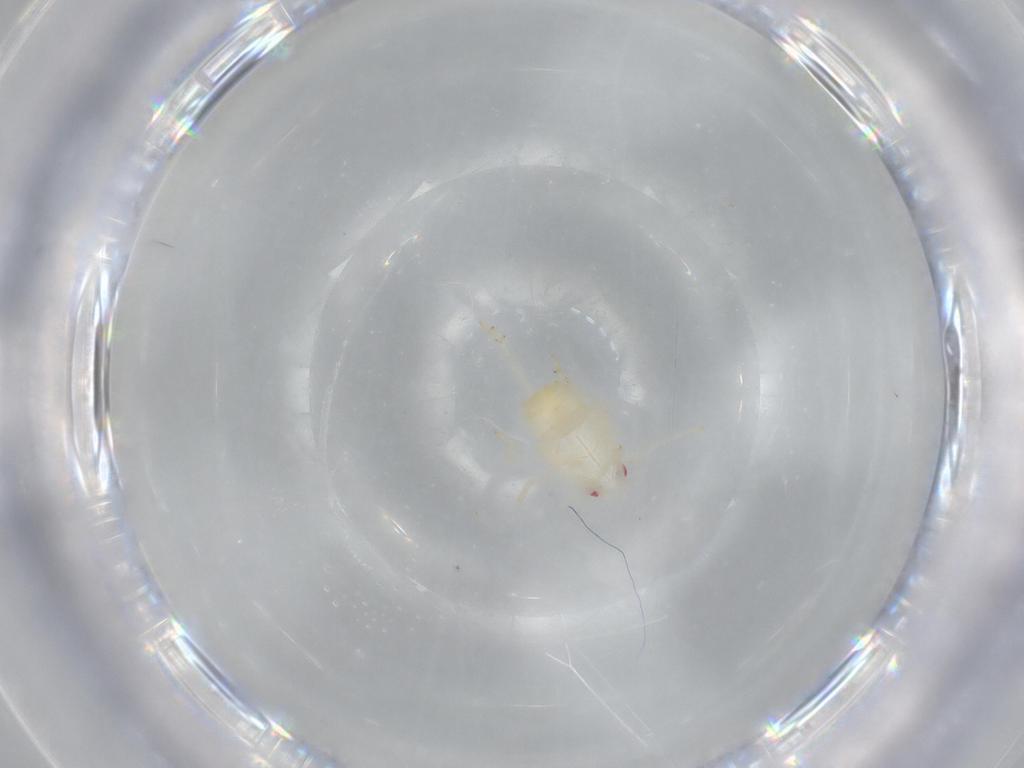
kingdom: Animalia
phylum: Arthropoda
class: Insecta
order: Hemiptera
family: Flatidae
